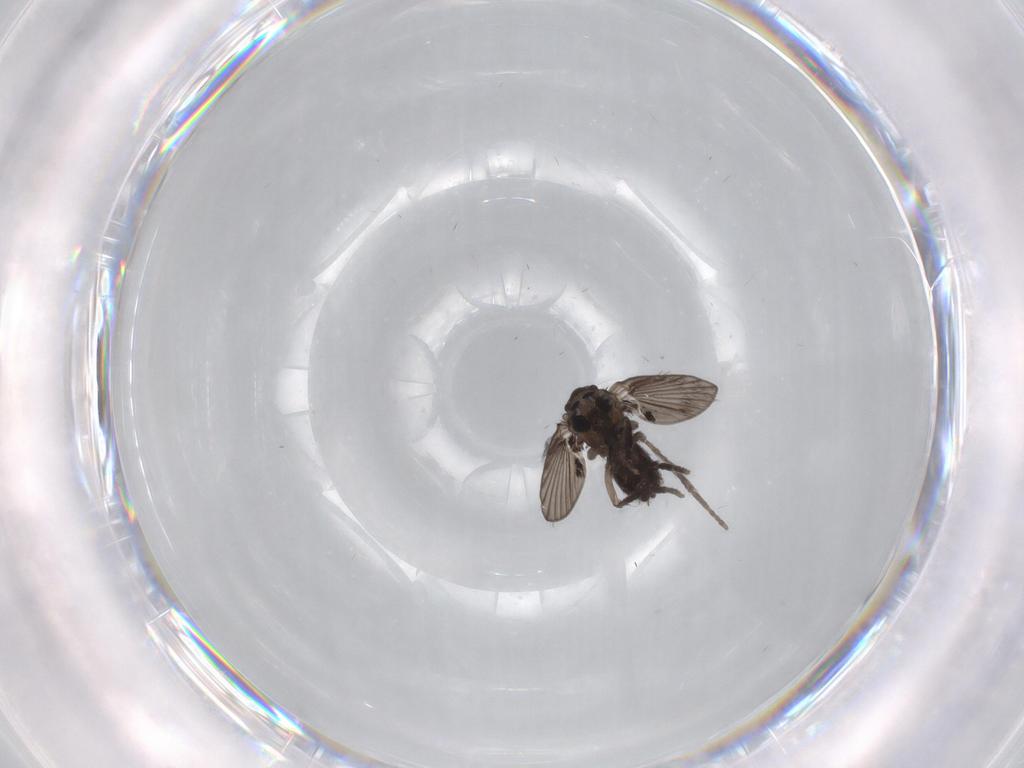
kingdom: Animalia
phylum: Arthropoda
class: Insecta
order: Diptera
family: Psychodidae
